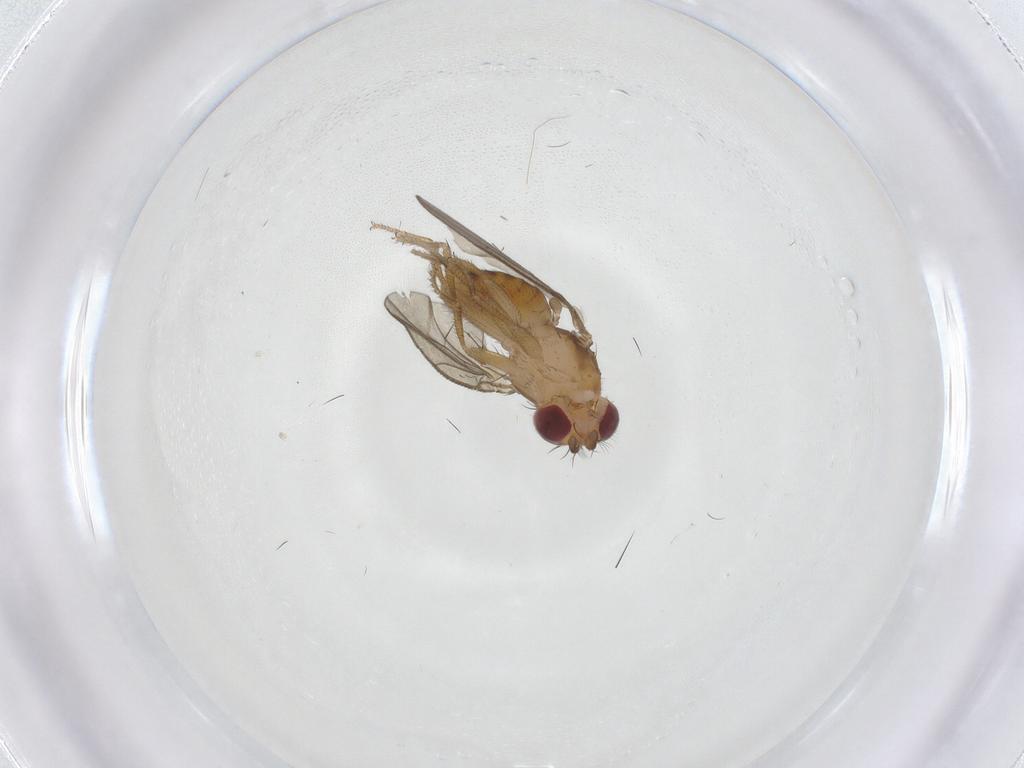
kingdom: Animalia
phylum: Arthropoda
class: Insecta
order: Diptera
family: Drosophilidae
